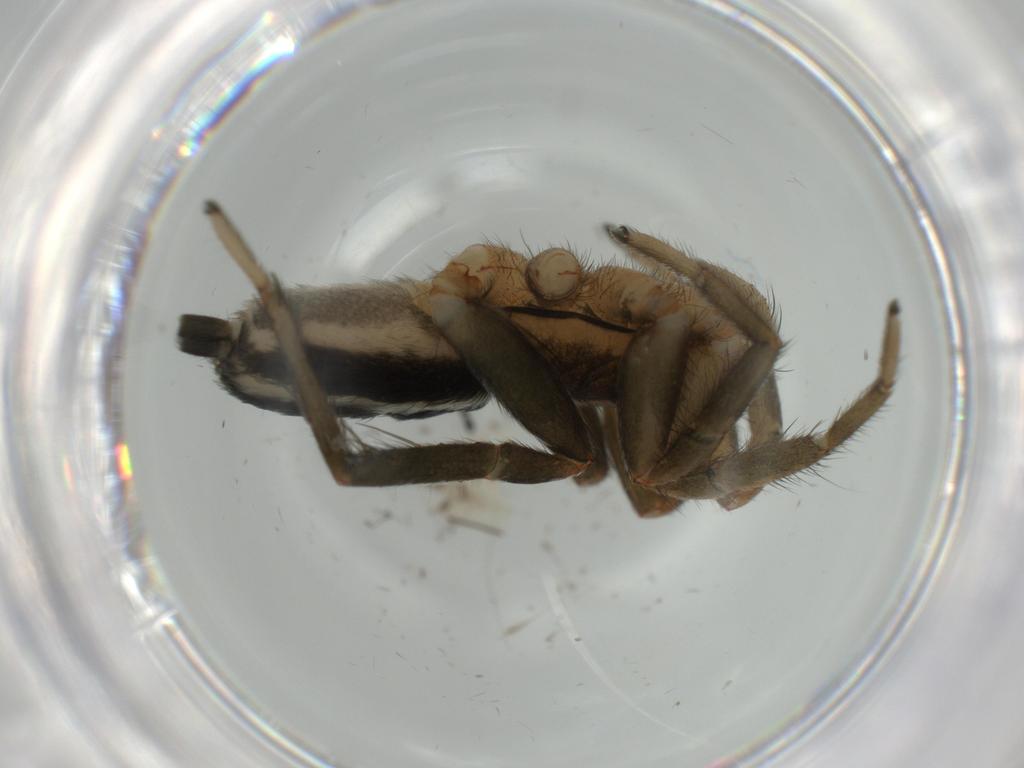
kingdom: Animalia
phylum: Arthropoda
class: Arachnida
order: Araneae
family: Gnaphosidae
